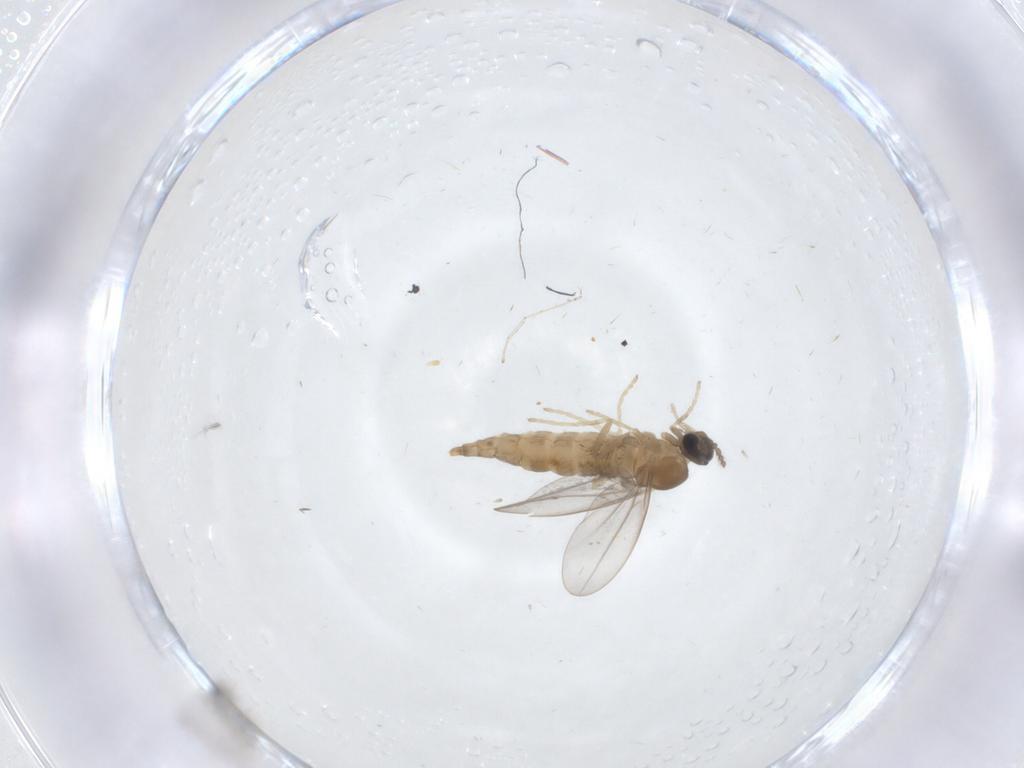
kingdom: Animalia
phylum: Arthropoda
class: Insecta
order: Diptera
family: Cecidomyiidae
